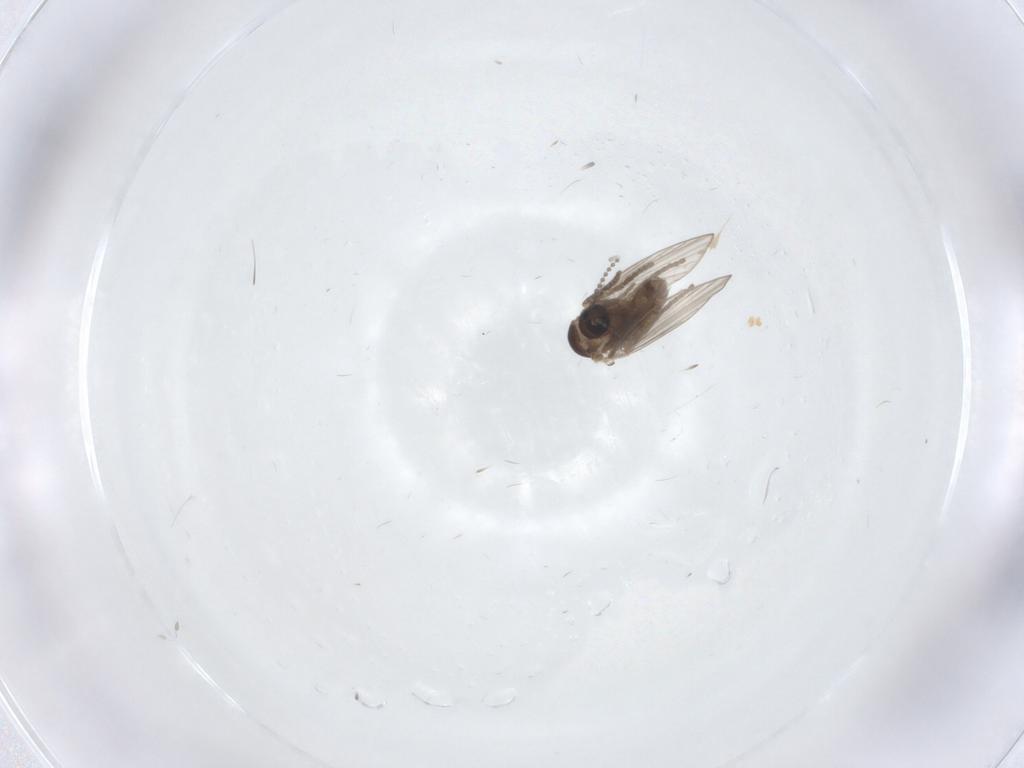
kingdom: Animalia
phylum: Arthropoda
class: Insecta
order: Diptera
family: Psychodidae
